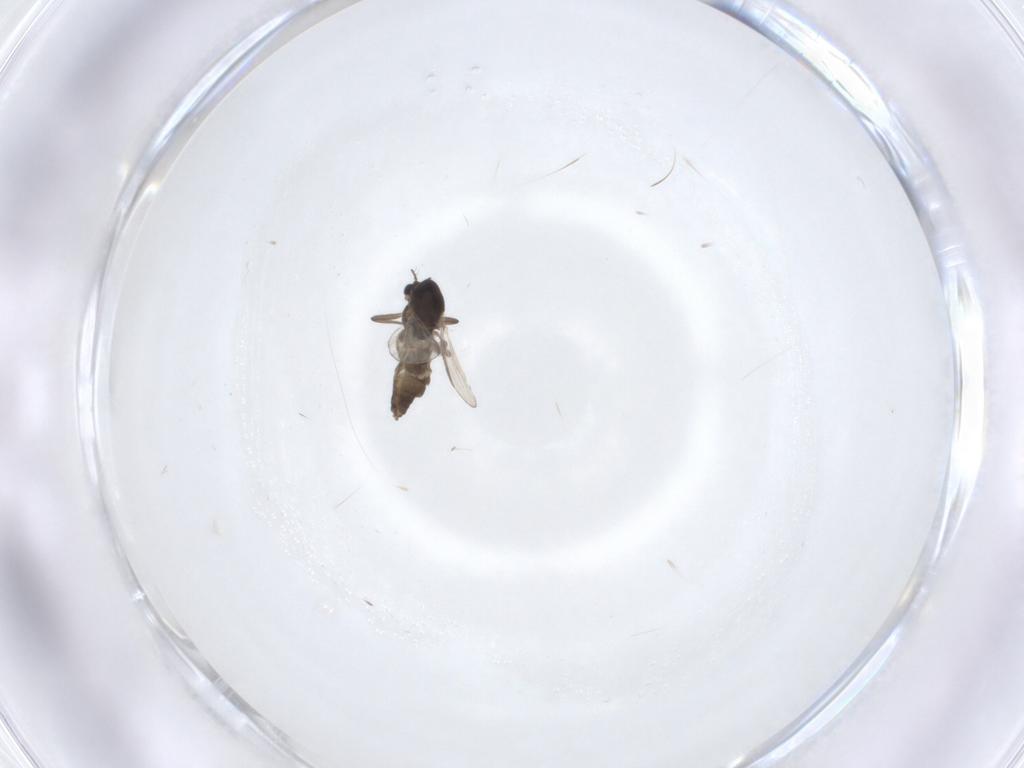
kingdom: Animalia
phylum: Arthropoda
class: Insecta
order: Diptera
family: Chironomidae
